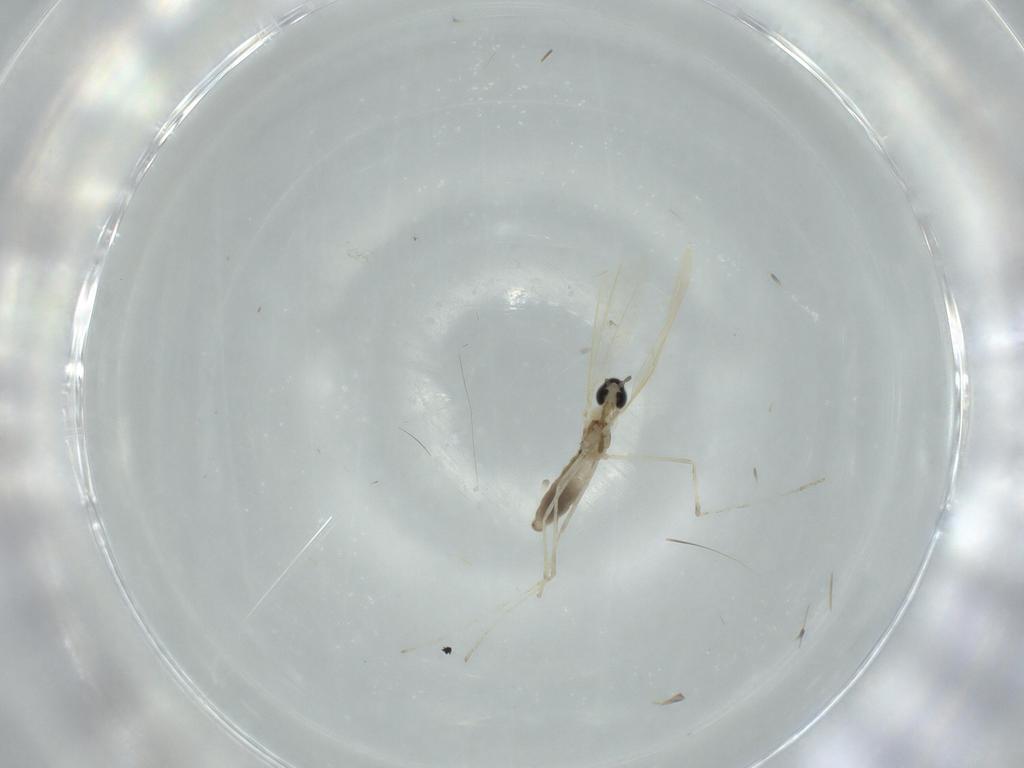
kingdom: Animalia
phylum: Arthropoda
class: Insecta
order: Diptera
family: Cecidomyiidae
